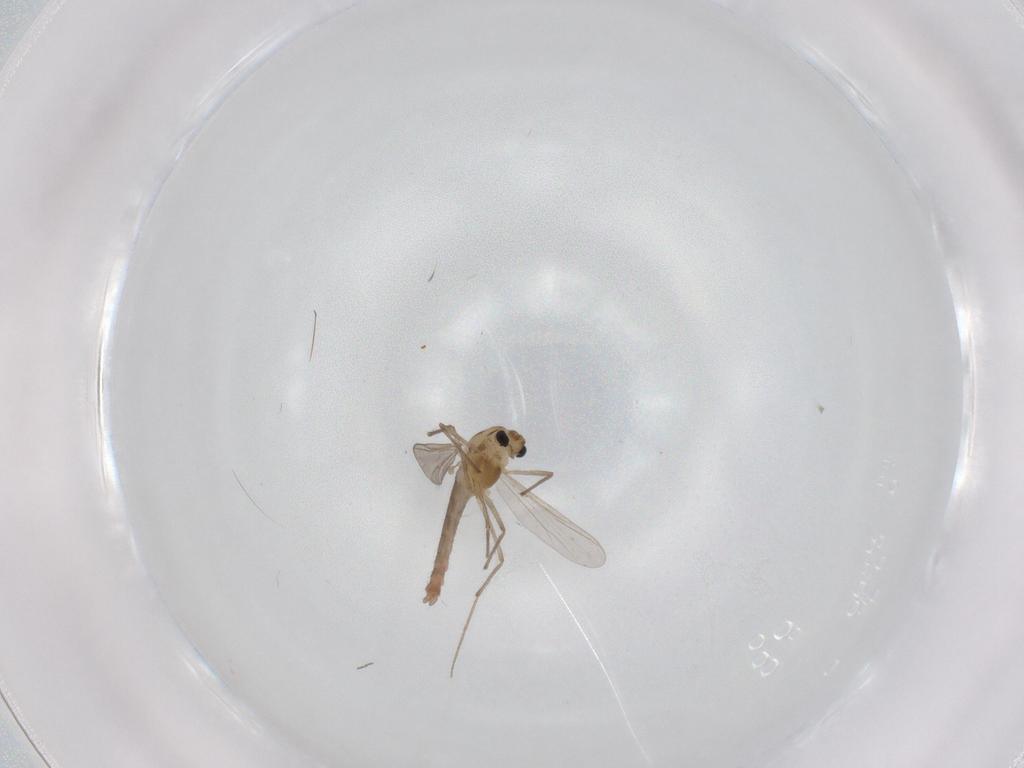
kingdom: Animalia
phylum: Arthropoda
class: Insecta
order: Diptera
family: Chironomidae
